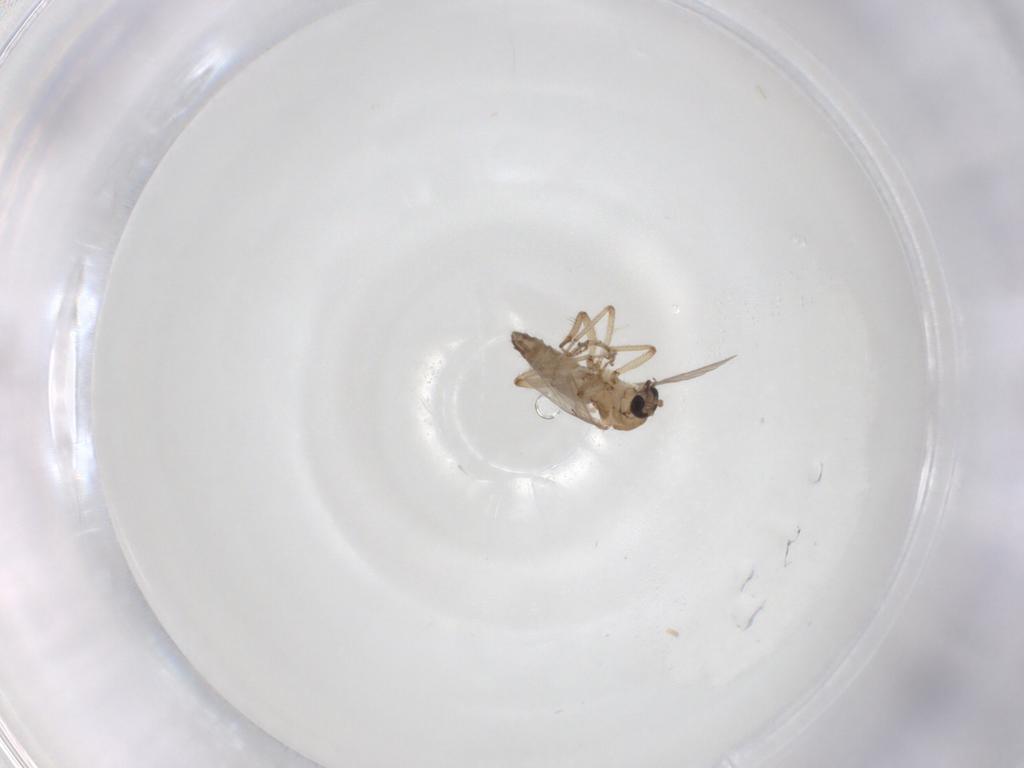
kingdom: Animalia
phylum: Arthropoda
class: Insecta
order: Diptera
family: Ceratopogonidae
